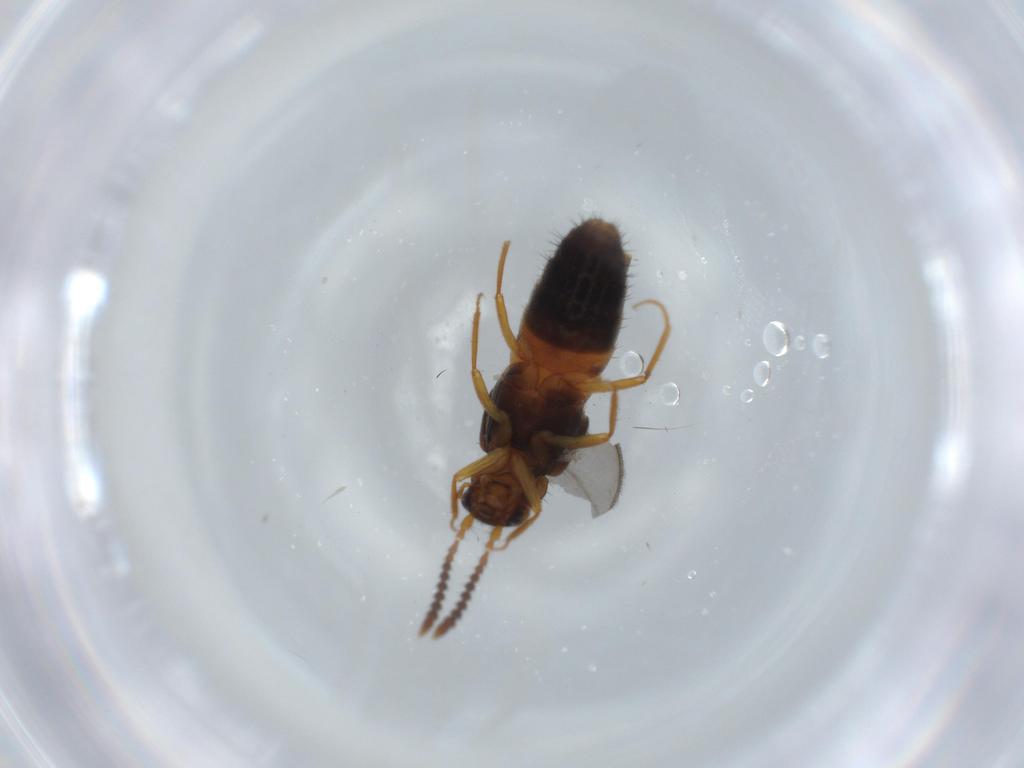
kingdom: Animalia
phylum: Arthropoda
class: Insecta
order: Coleoptera
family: Staphylinidae
